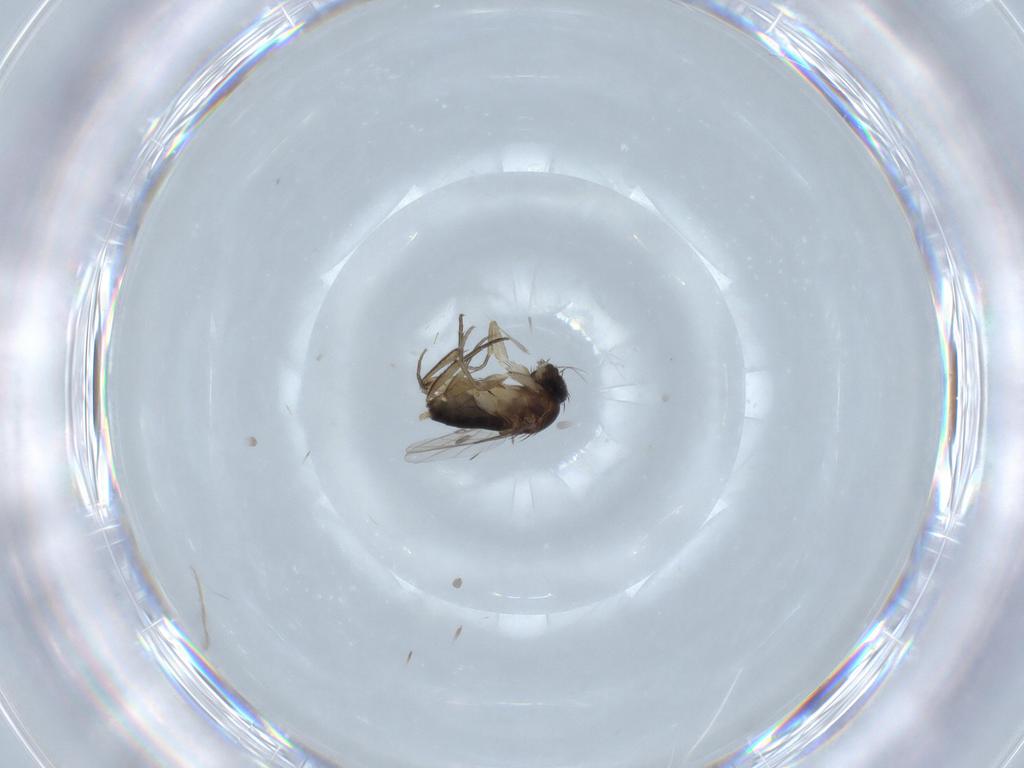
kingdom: Animalia
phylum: Arthropoda
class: Insecta
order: Diptera
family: Phoridae
